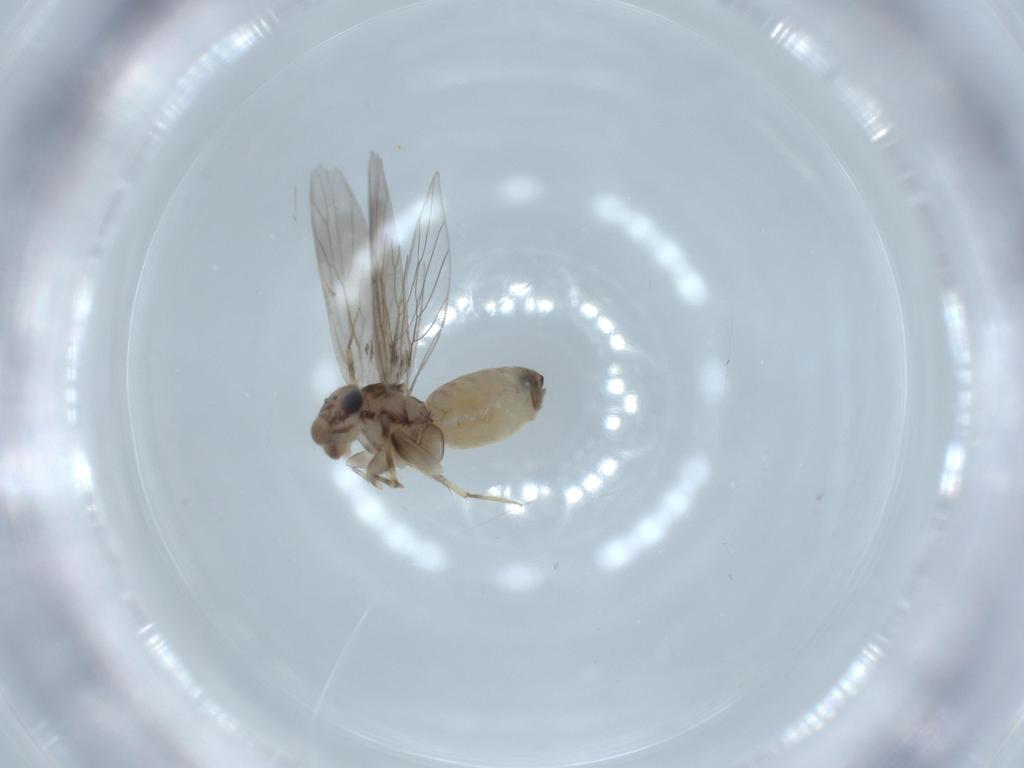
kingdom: Animalia
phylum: Arthropoda
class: Insecta
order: Psocodea
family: Lepidopsocidae
